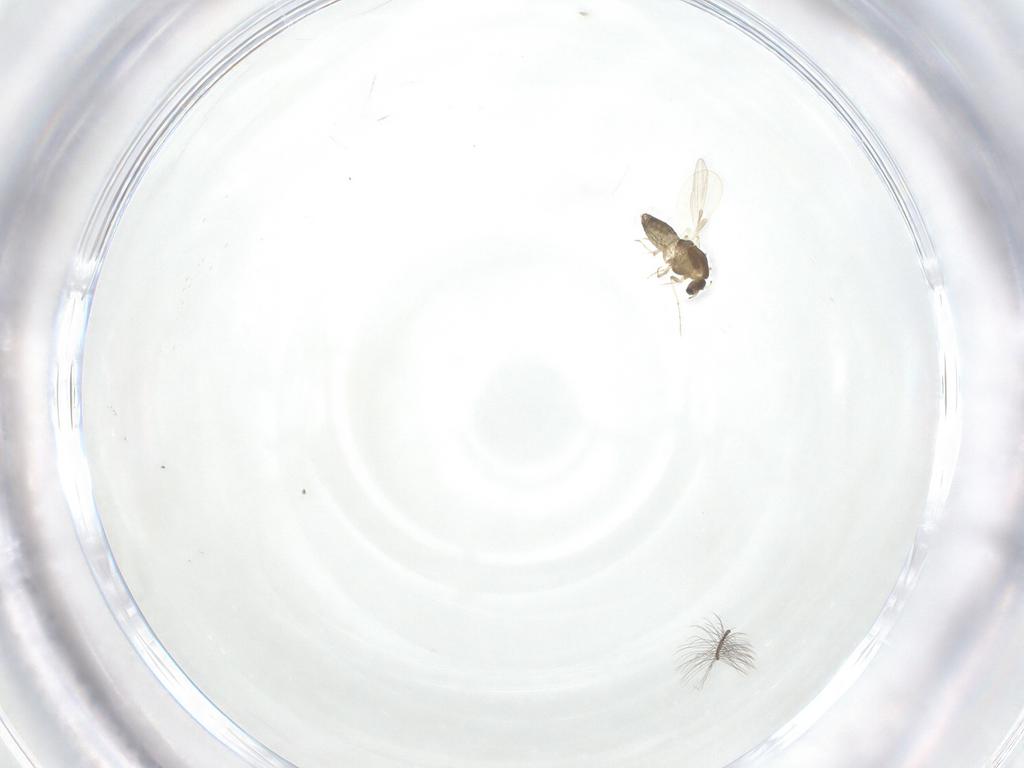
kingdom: Animalia
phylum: Arthropoda
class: Insecta
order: Diptera
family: Chironomidae
